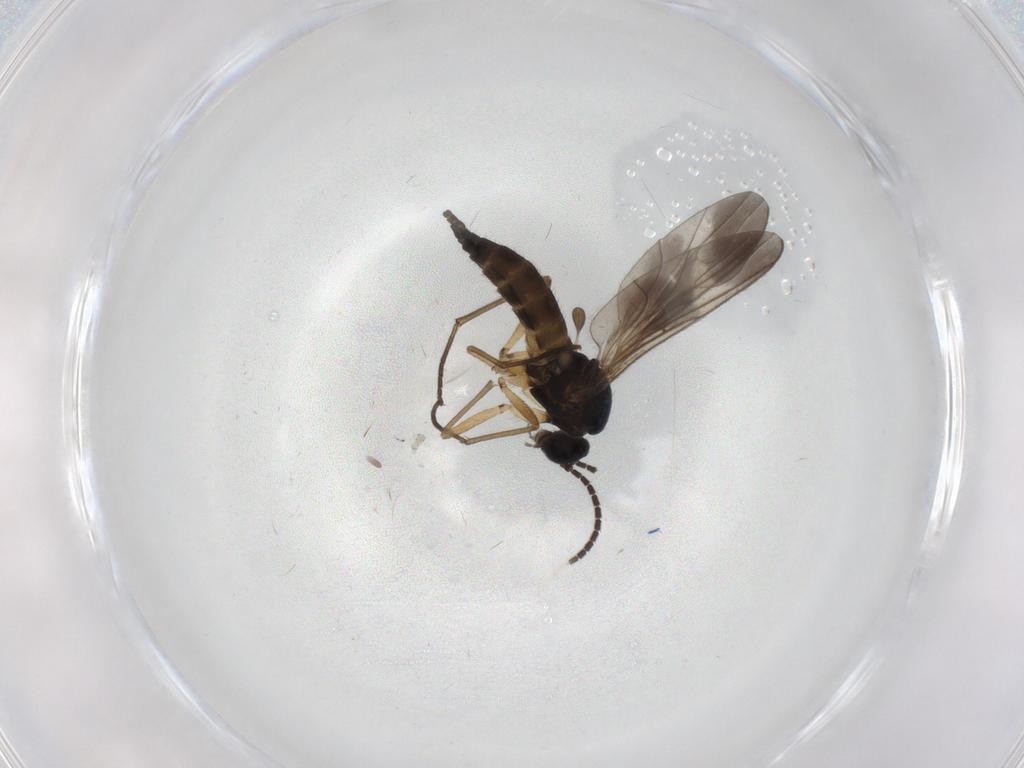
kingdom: Animalia
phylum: Arthropoda
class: Insecta
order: Diptera
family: Sciaridae
